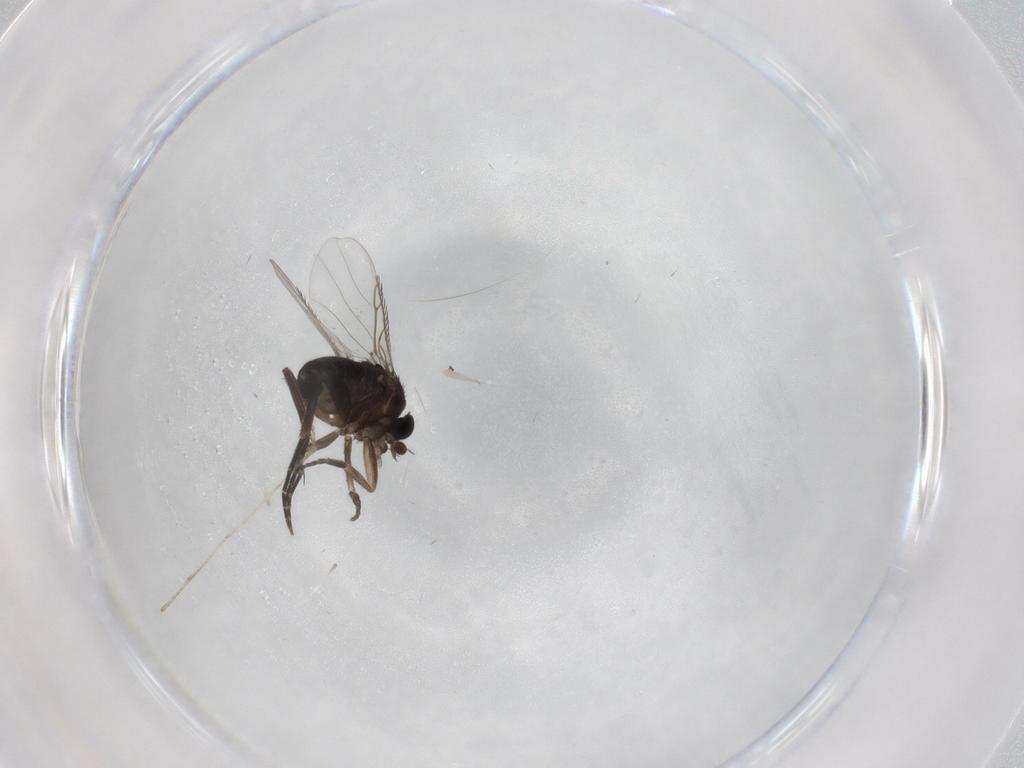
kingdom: Animalia
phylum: Arthropoda
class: Insecta
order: Diptera
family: Phoridae
